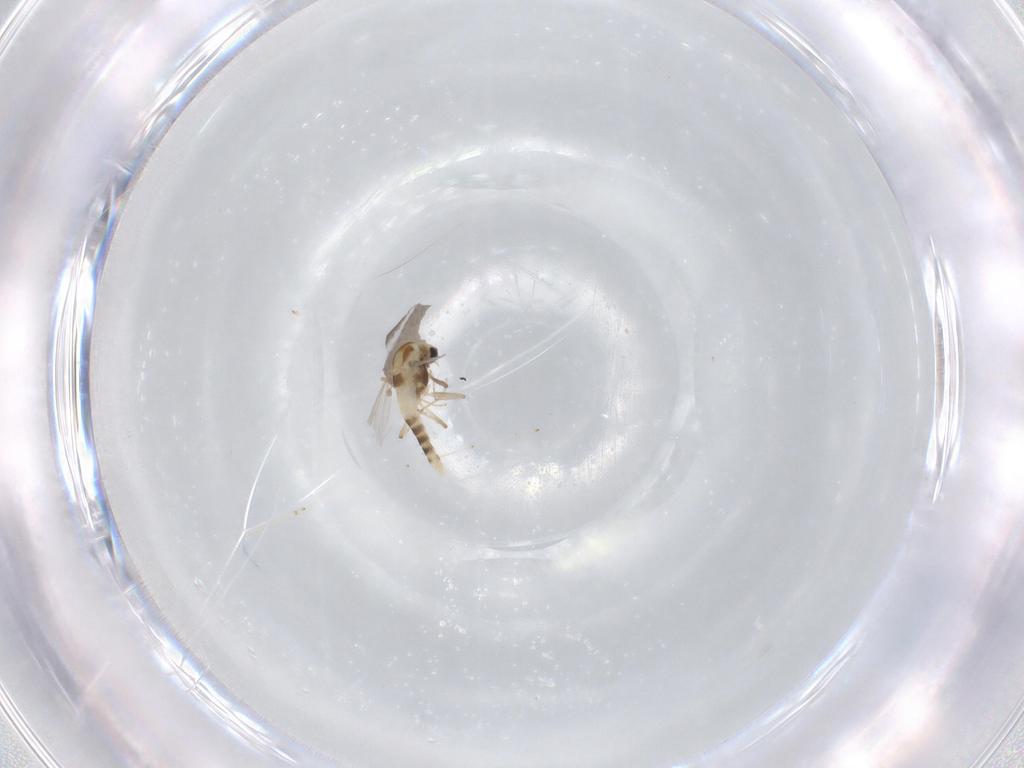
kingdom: Animalia
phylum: Arthropoda
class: Insecta
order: Diptera
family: Chironomidae
